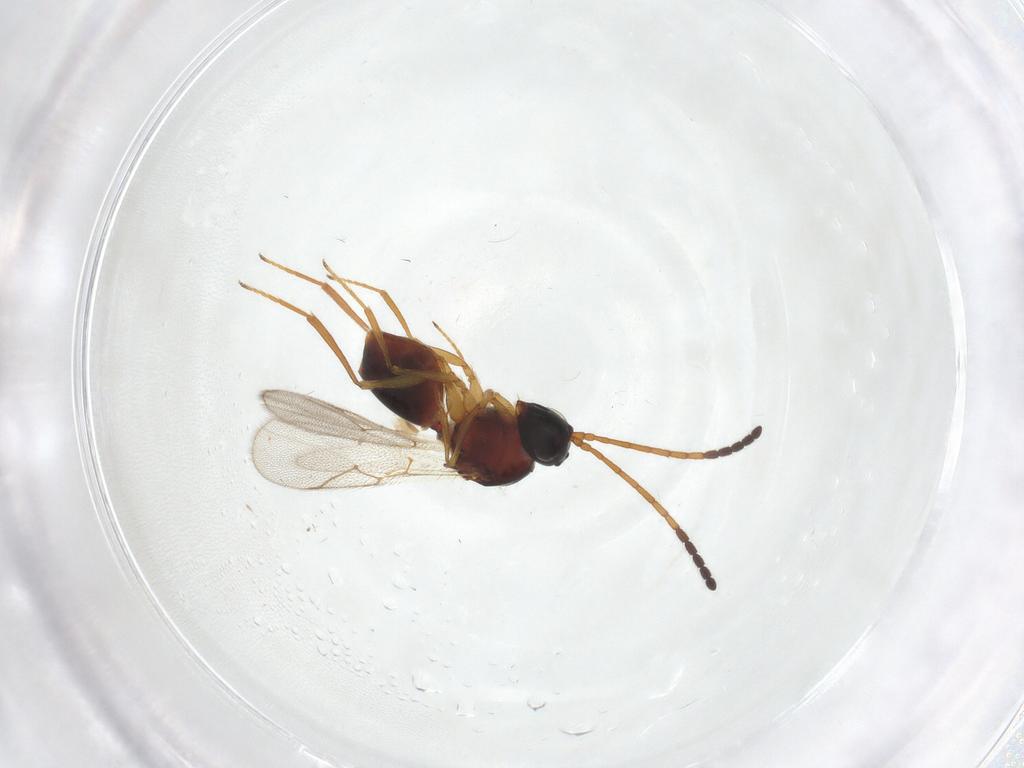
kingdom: Animalia
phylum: Arthropoda
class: Insecta
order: Hymenoptera
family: Figitidae
